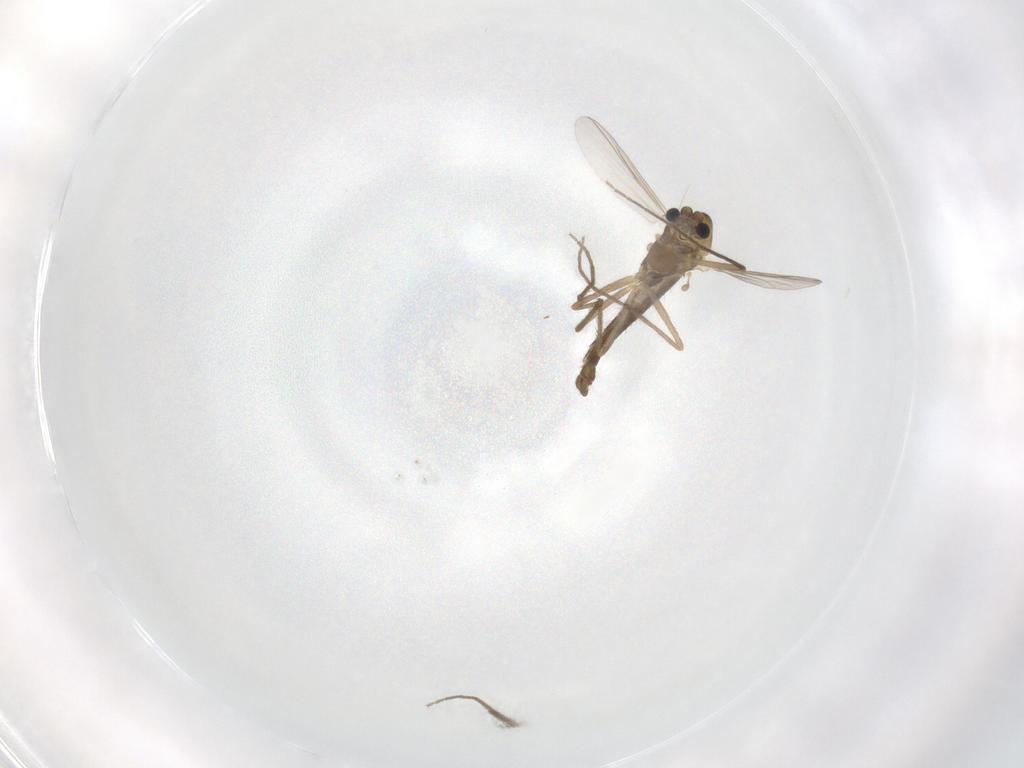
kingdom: Animalia
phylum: Arthropoda
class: Insecta
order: Diptera
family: Chironomidae
